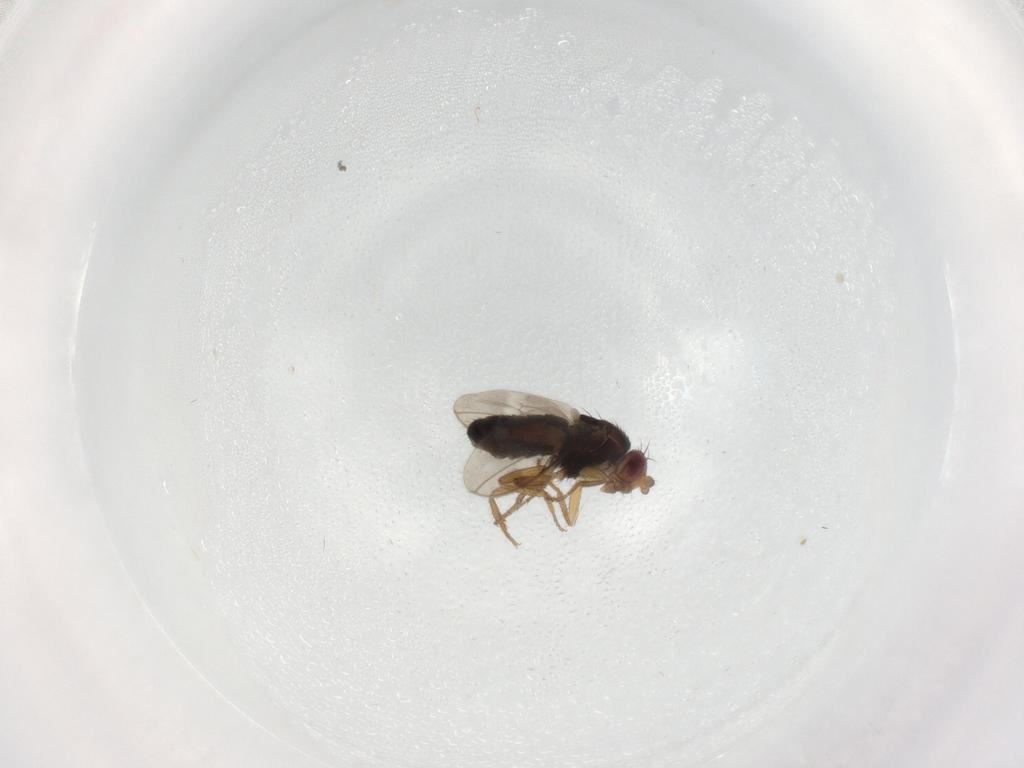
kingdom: Animalia
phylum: Arthropoda
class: Insecta
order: Diptera
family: Sphaeroceridae
